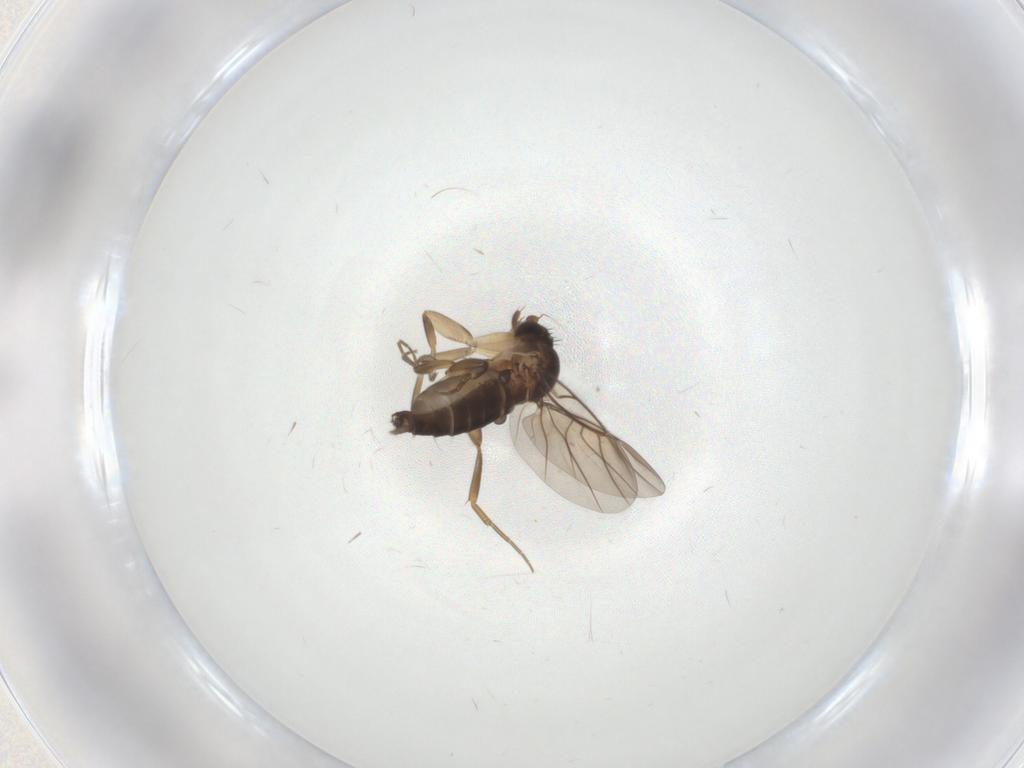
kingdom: Animalia
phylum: Arthropoda
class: Insecta
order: Diptera
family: Phoridae
